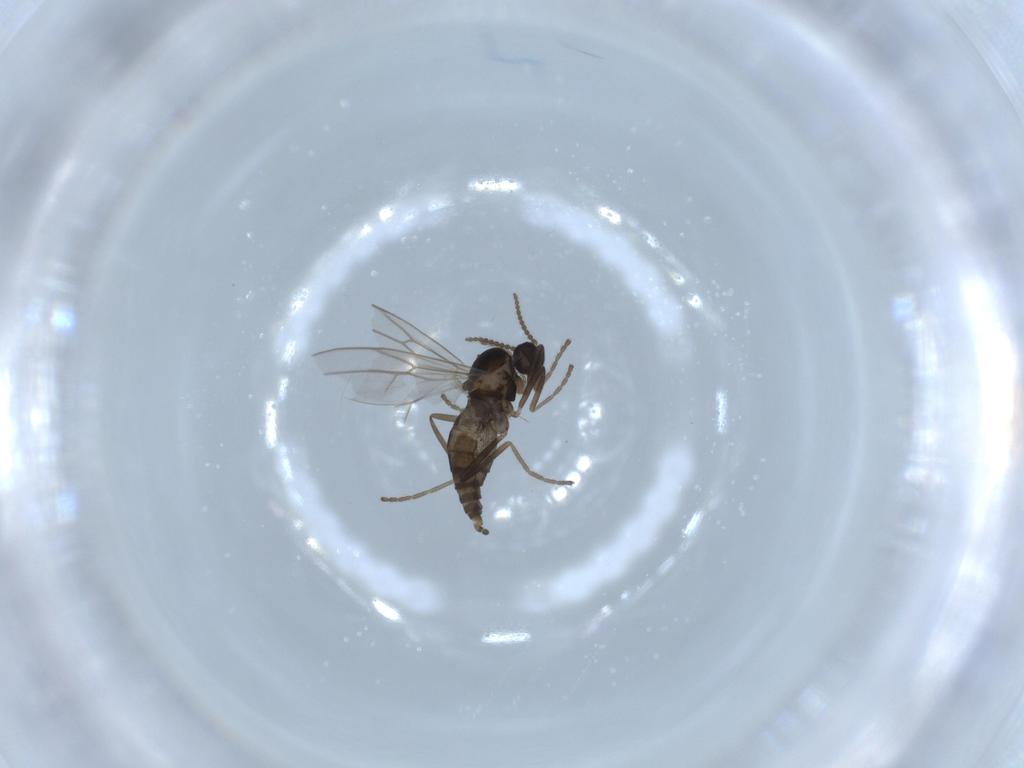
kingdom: Animalia
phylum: Arthropoda
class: Insecta
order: Diptera
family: Cecidomyiidae
